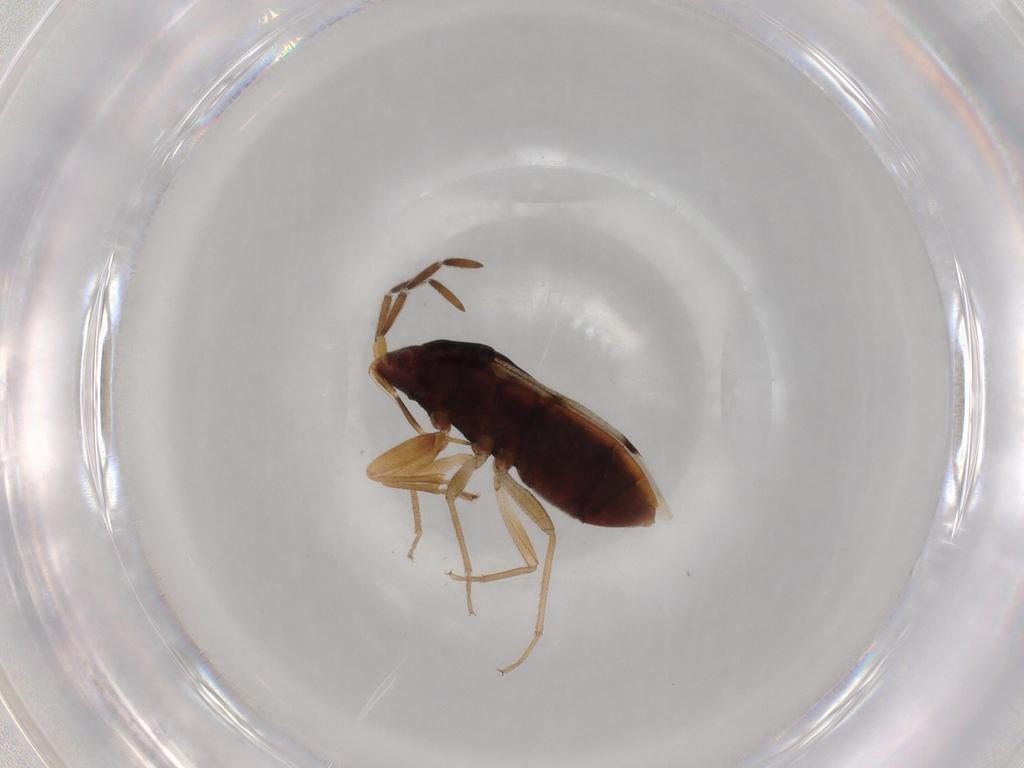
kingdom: Animalia
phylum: Arthropoda
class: Insecta
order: Hemiptera
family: Rhyparochromidae
